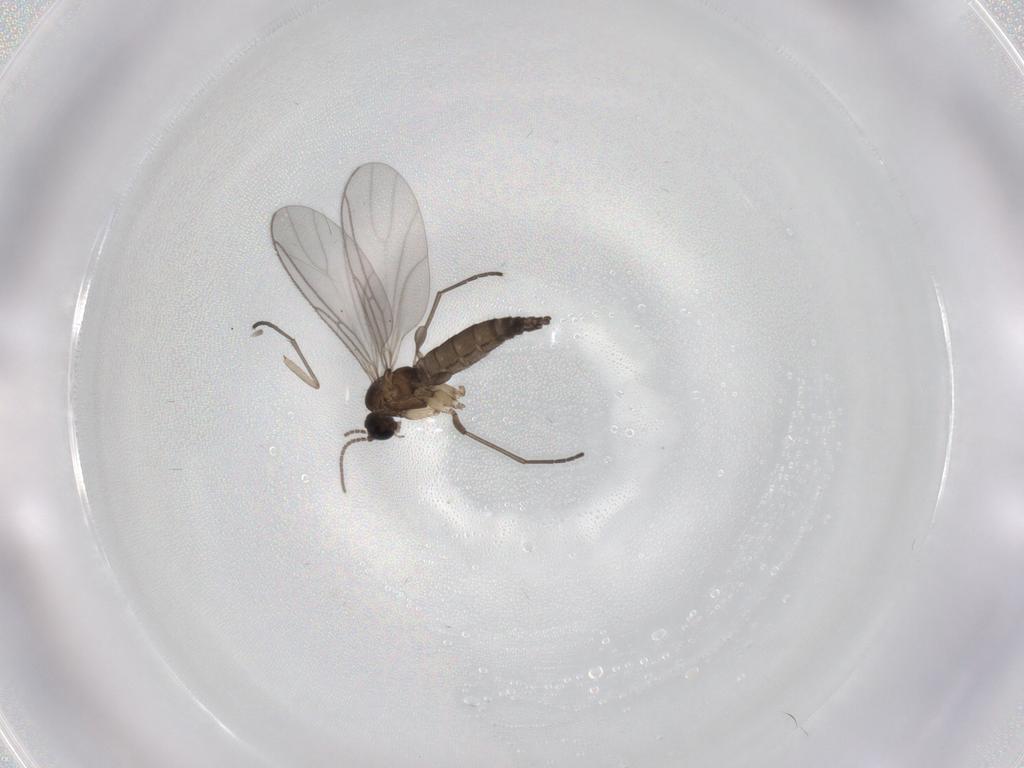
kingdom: Animalia
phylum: Arthropoda
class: Insecta
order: Diptera
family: Sciaridae
